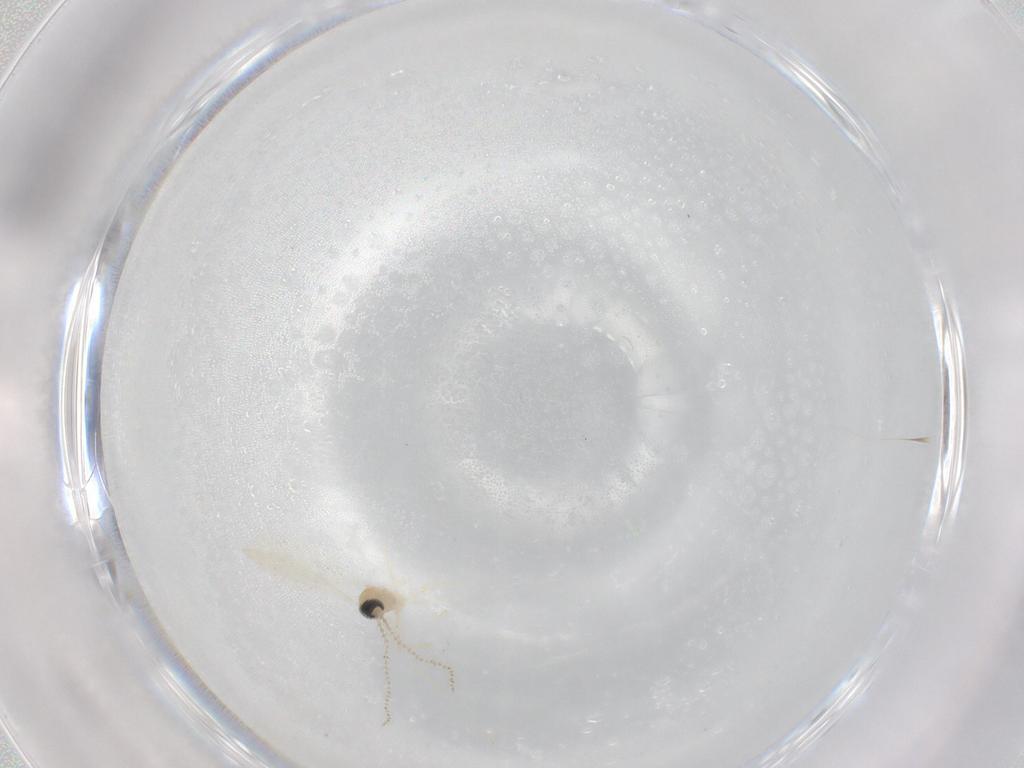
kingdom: Animalia
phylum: Arthropoda
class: Insecta
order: Diptera
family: Cecidomyiidae
